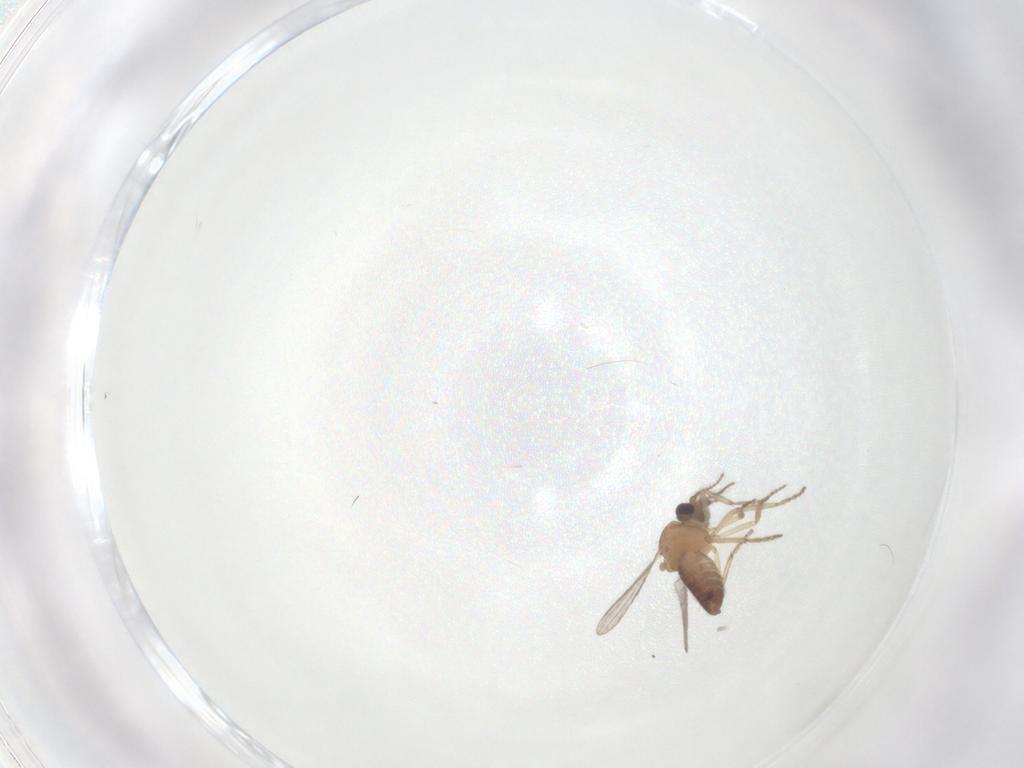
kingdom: Animalia
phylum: Arthropoda
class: Insecta
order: Diptera
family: Ceratopogonidae
